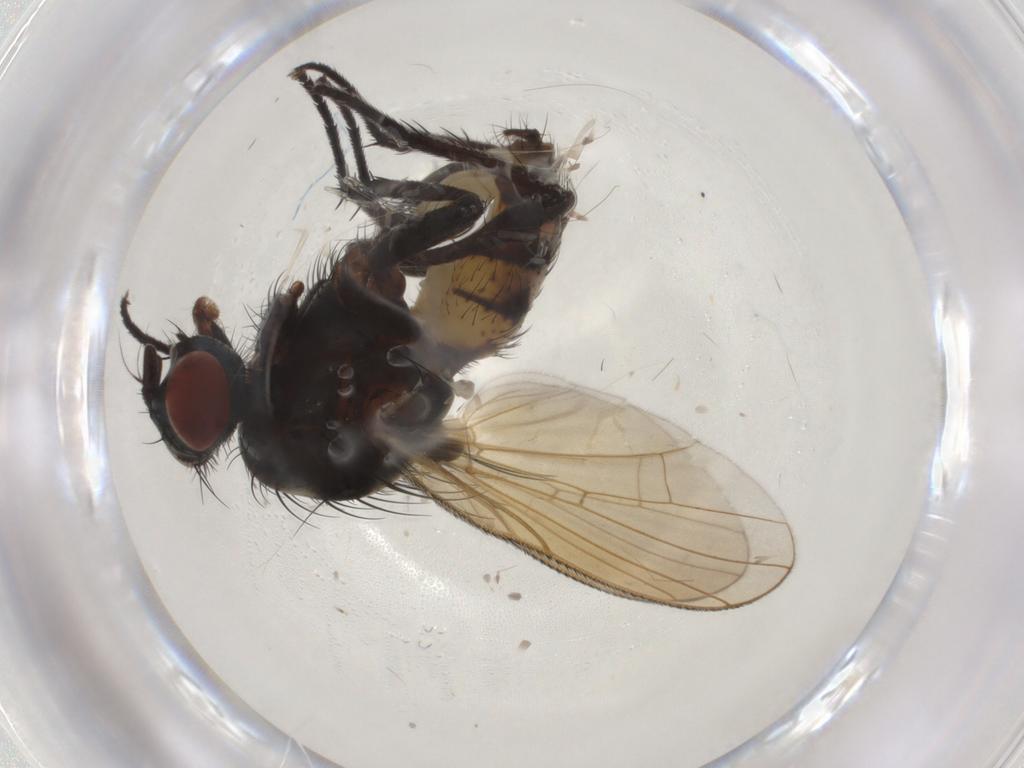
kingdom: Animalia
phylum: Arthropoda
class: Insecta
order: Diptera
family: Anthomyiidae
